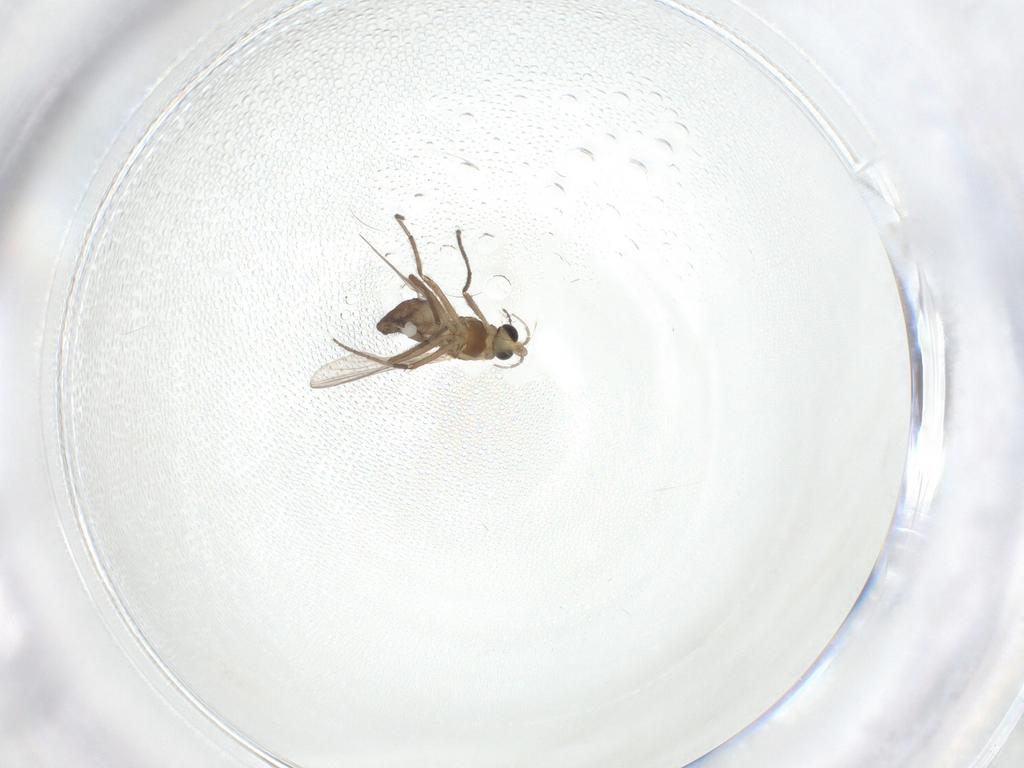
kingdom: Animalia
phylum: Arthropoda
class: Insecta
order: Diptera
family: Chironomidae
